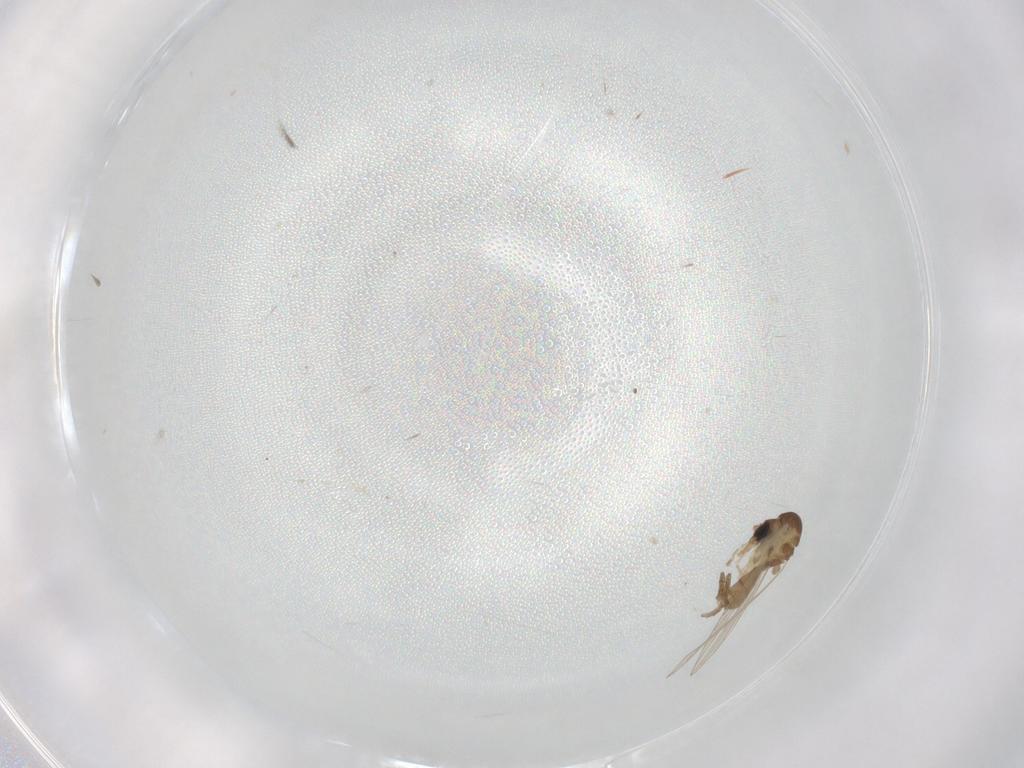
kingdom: Animalia
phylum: Arthropoda
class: Insecta
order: Diptera
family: Psychodidae
